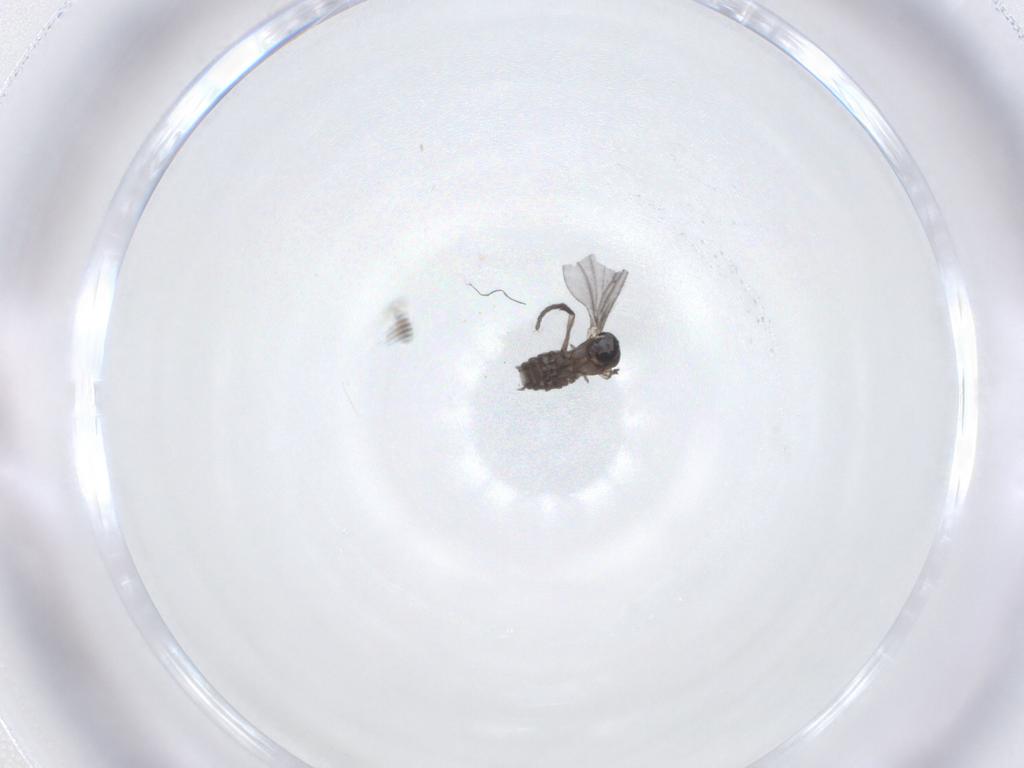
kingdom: Animalia
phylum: Arthropoda
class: Insecta
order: Diptera
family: Sciaridae
